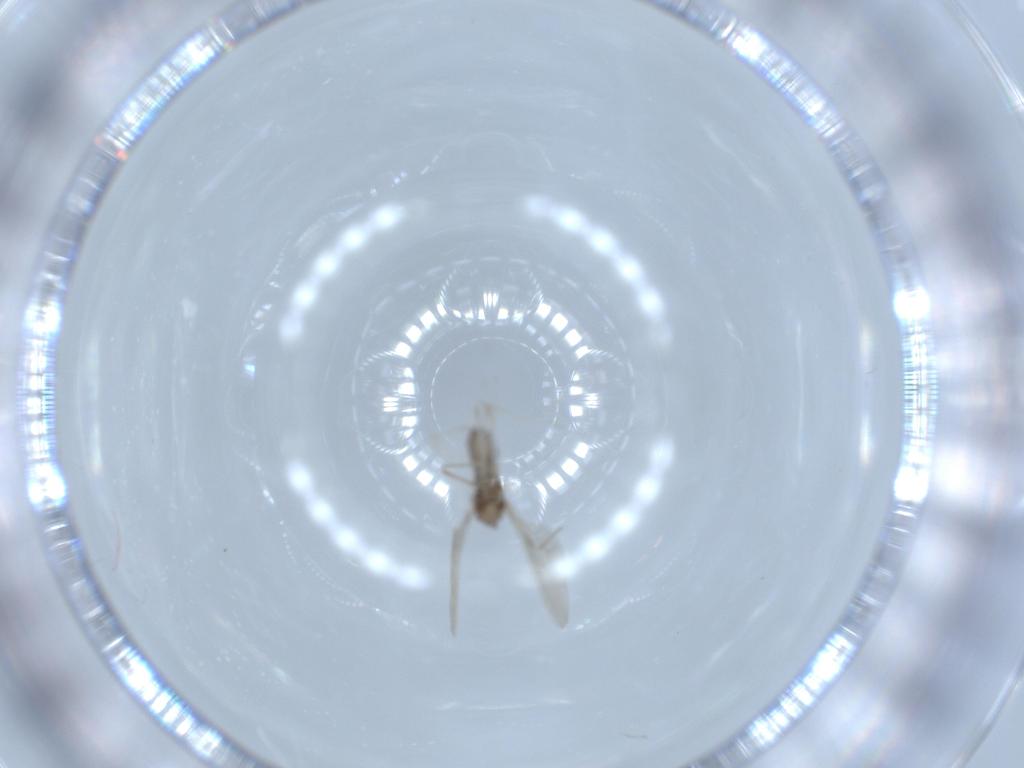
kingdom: Animalia
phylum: Arthropoda
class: Insecta
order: Diptera
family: Cecidomyiidae
